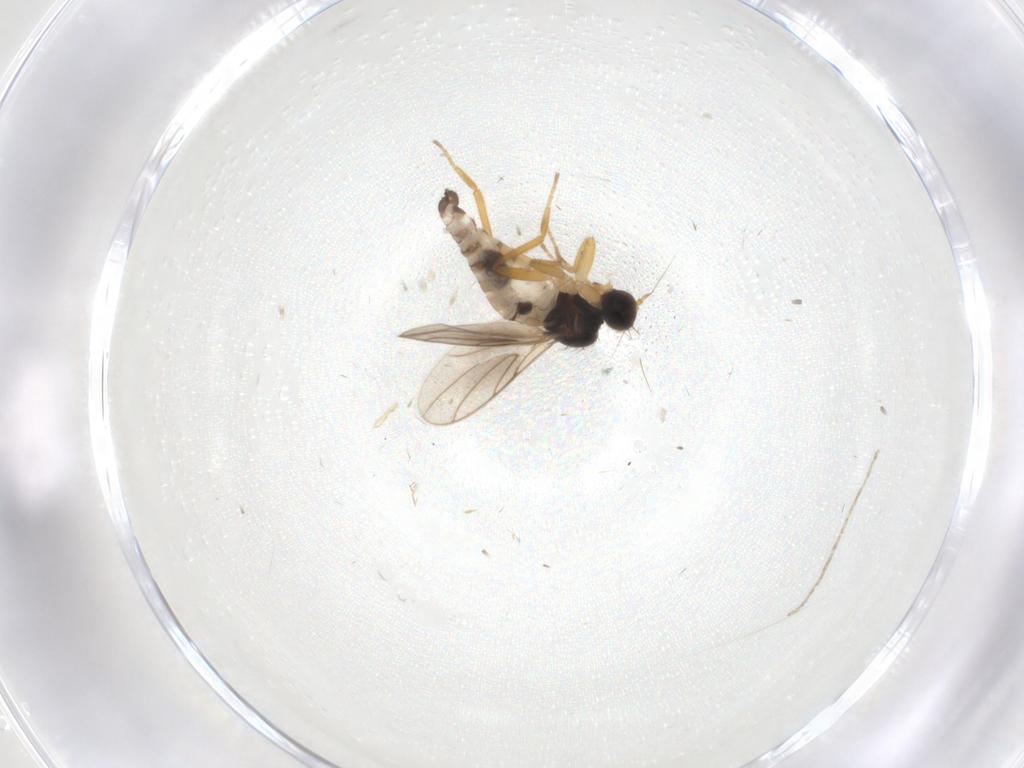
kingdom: Animalia
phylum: Arthropoda
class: Insecta
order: Diptera
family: Cecidomyiidae
